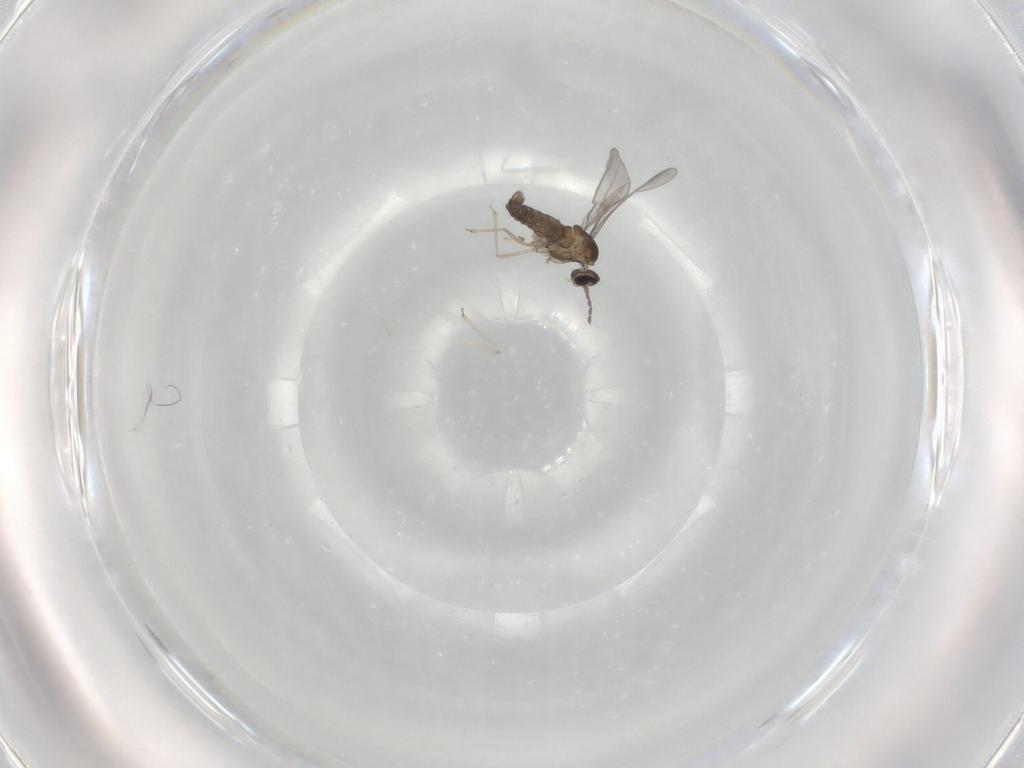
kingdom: Animalia
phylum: Arthropoda
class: Insecta
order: Diptera
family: Cecidomyiidae
